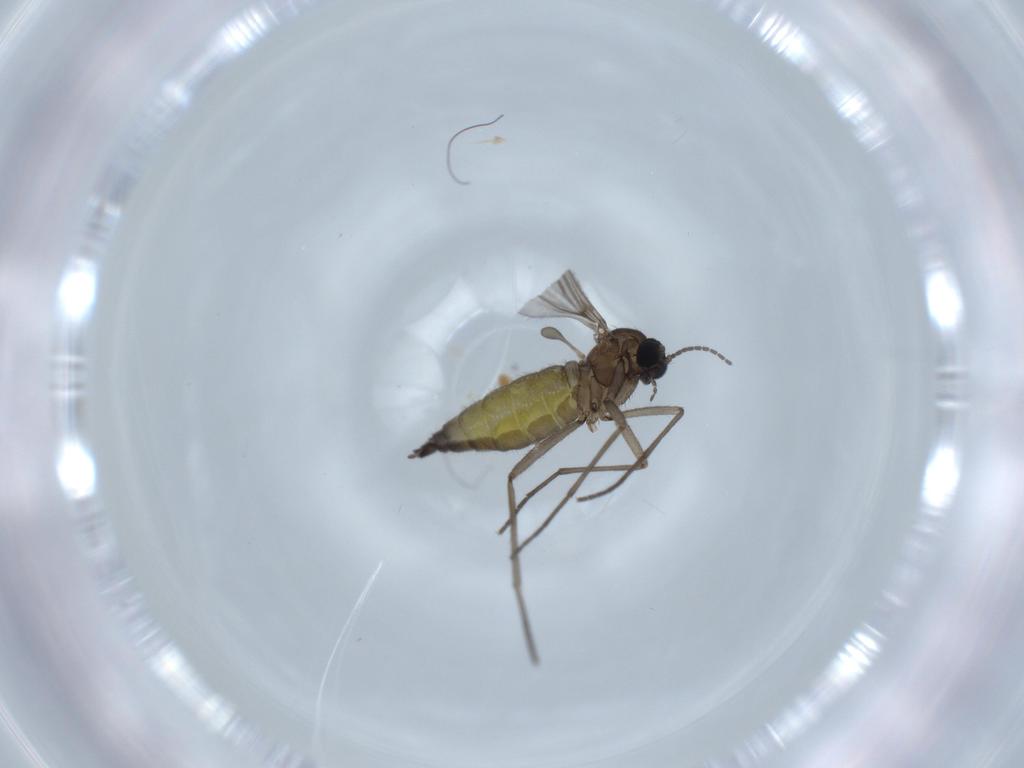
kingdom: Animalia
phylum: Arthropoda
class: Insecta
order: Diptera
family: Sciaridae
